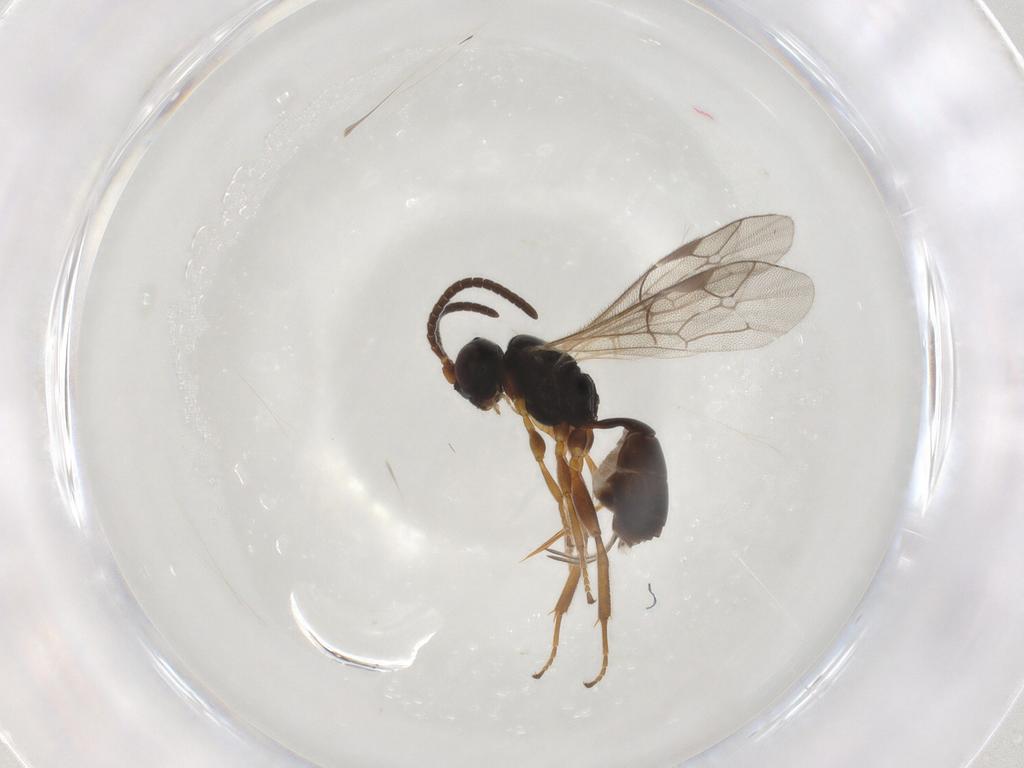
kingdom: Animalia
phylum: Arthropoda
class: Insecta
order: Hymenoptera
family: Ichneumonidae
